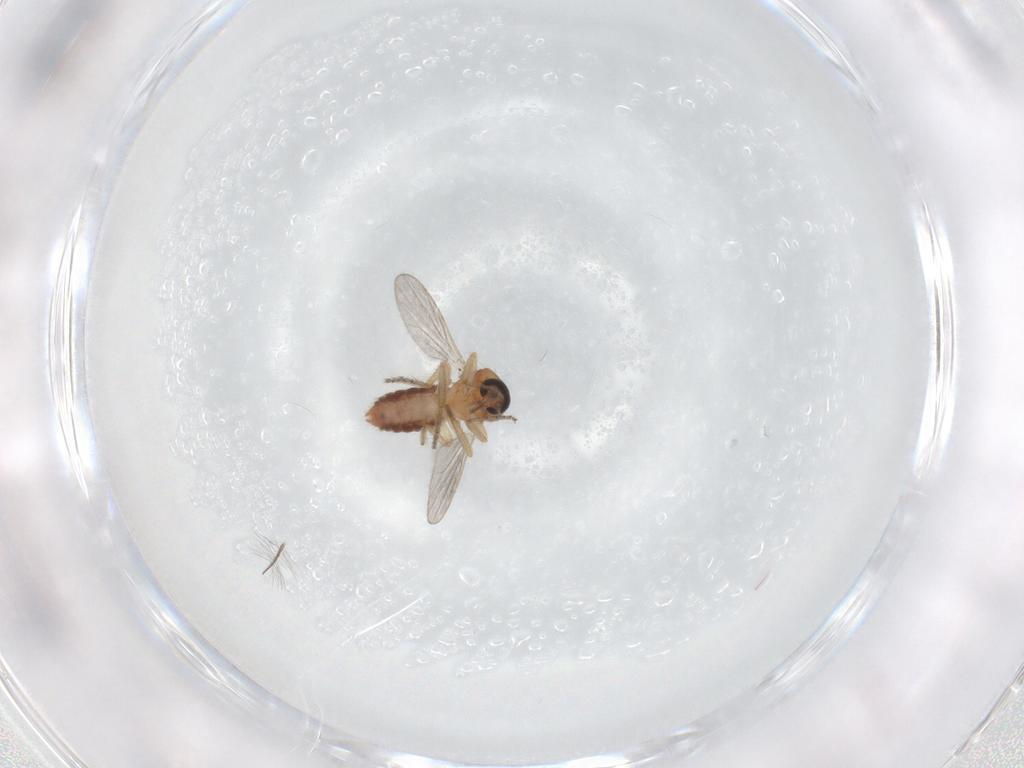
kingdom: Animalia
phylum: Arthropoda
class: Insecta
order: Diptera
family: Ceratopogonidae
